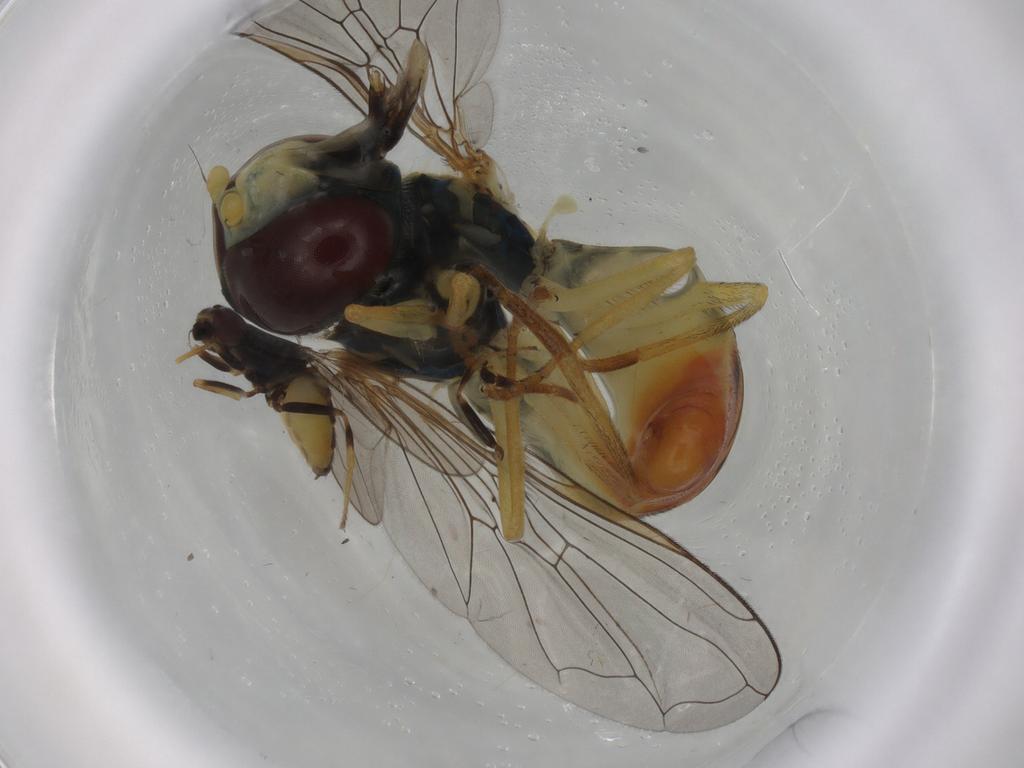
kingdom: Animalia
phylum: Arthropoda
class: Insecta
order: Diptera
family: Syrphidae
